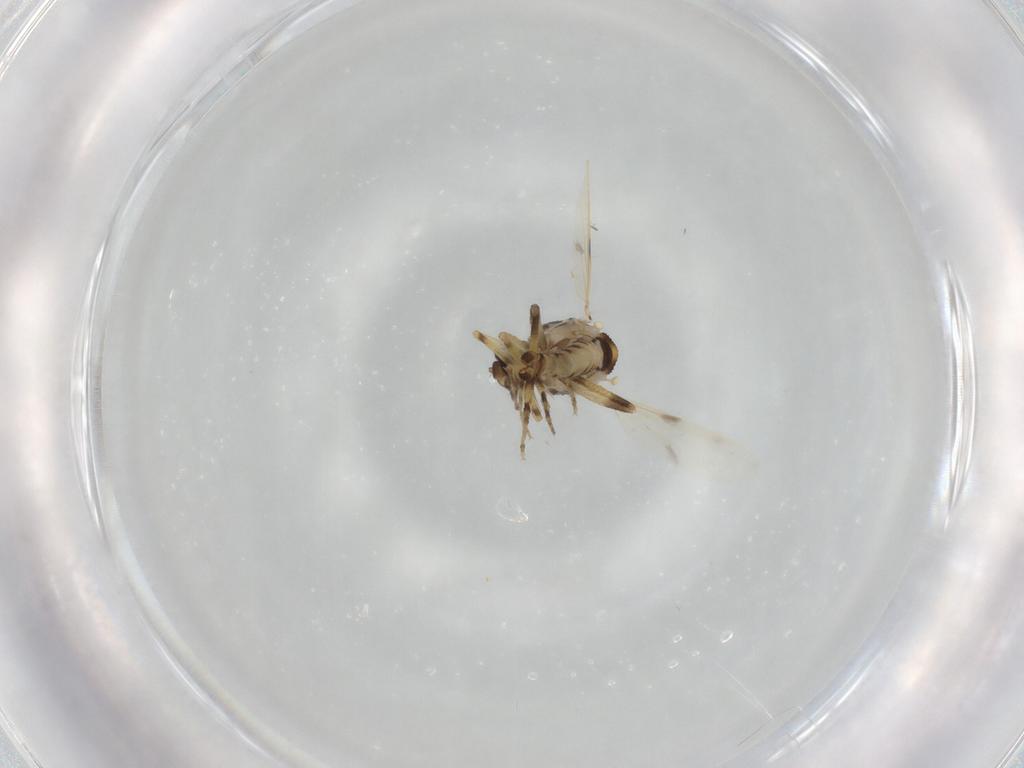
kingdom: Animalia
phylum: Arthropoda
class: Insecta
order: Diptera
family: Ceratopogonidae
